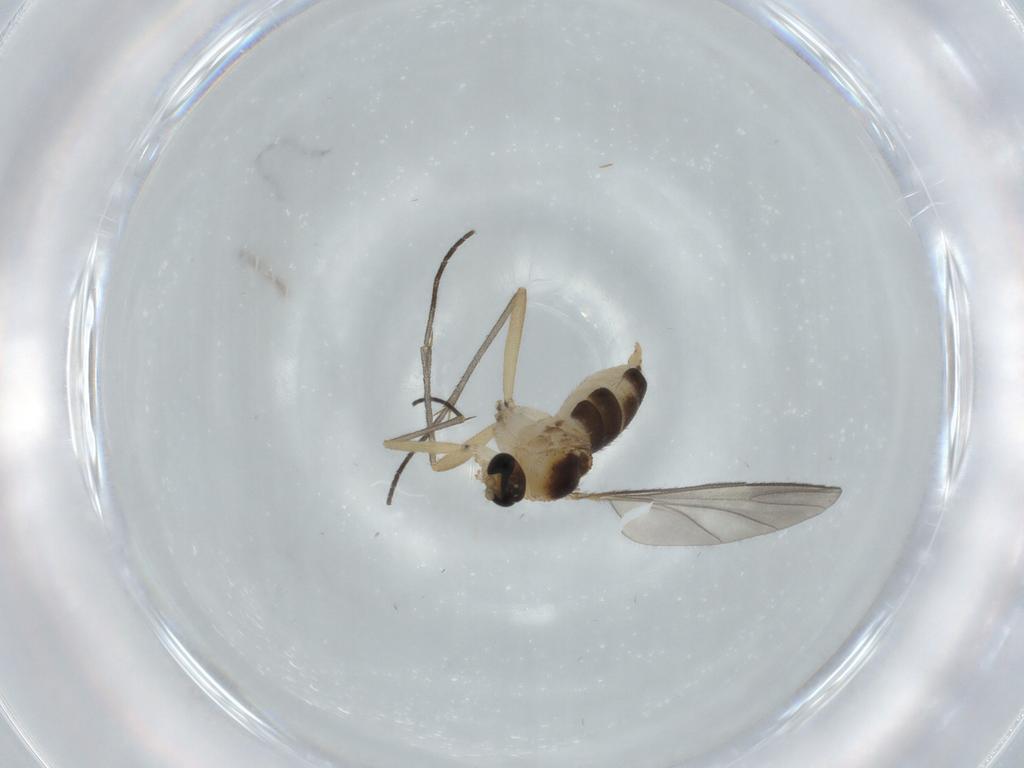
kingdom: Animalia
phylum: Arthropoda
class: Insecta
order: Diptera
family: Sciaridae
